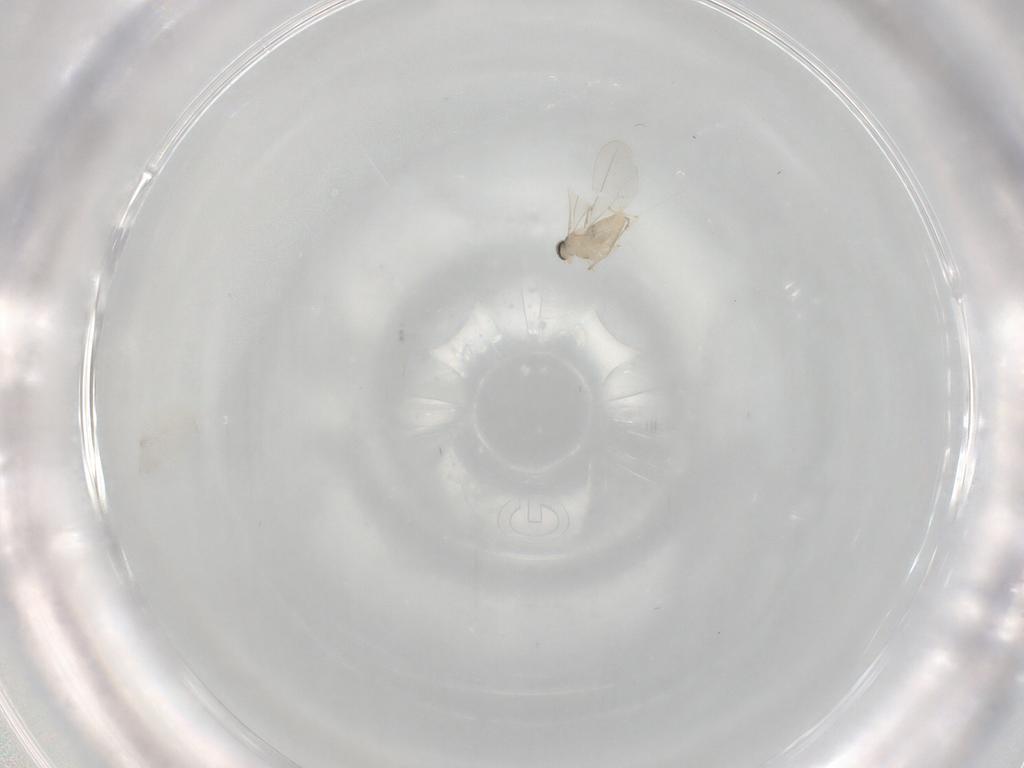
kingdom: Animalia
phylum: Arthropoda
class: Insecta
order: Diptera
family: Cecidomyiidae
